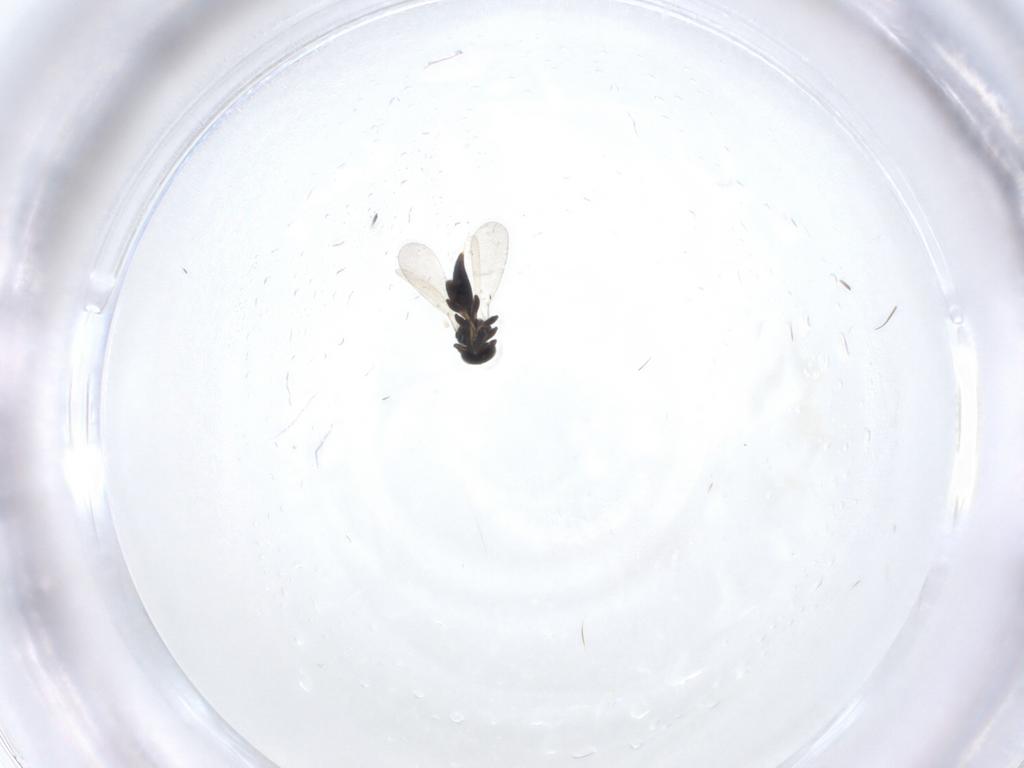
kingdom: Animalia
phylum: Arthropoda
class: Insecta
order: Hymenoptera
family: Platygastridae
